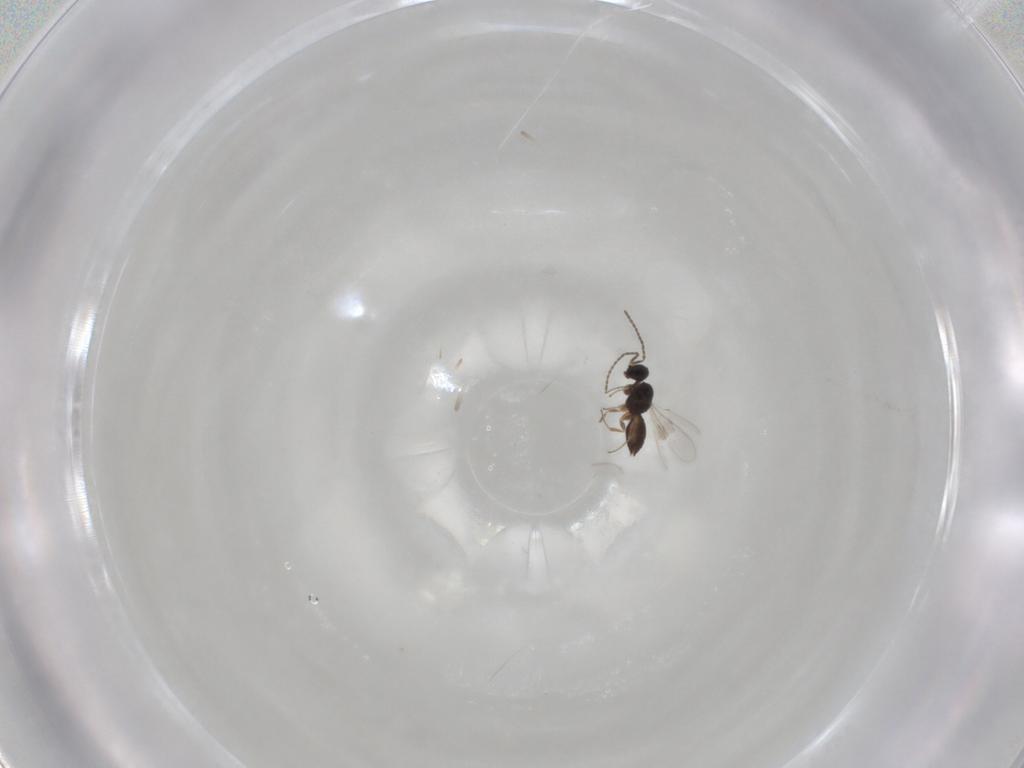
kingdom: Animalia
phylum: Arthropoda
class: Insecta
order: Hymenoptera
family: Scelionidae
